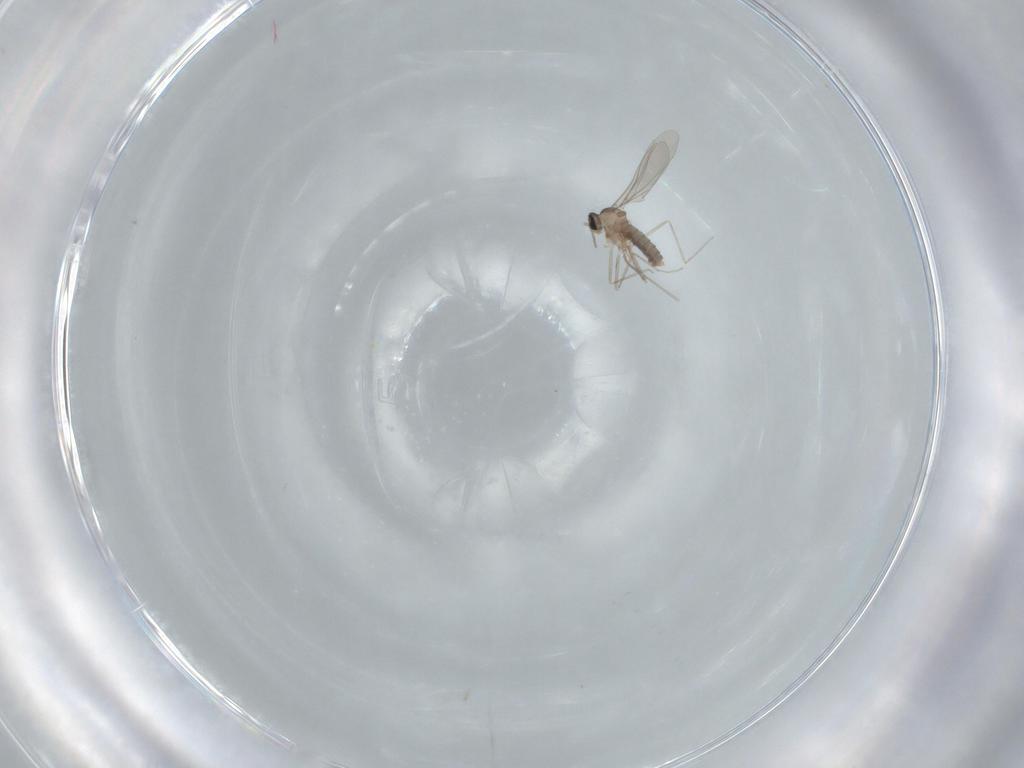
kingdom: Animalia
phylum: Arthropoda
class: Insecta
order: Diptera
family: Cecidomyiidae
